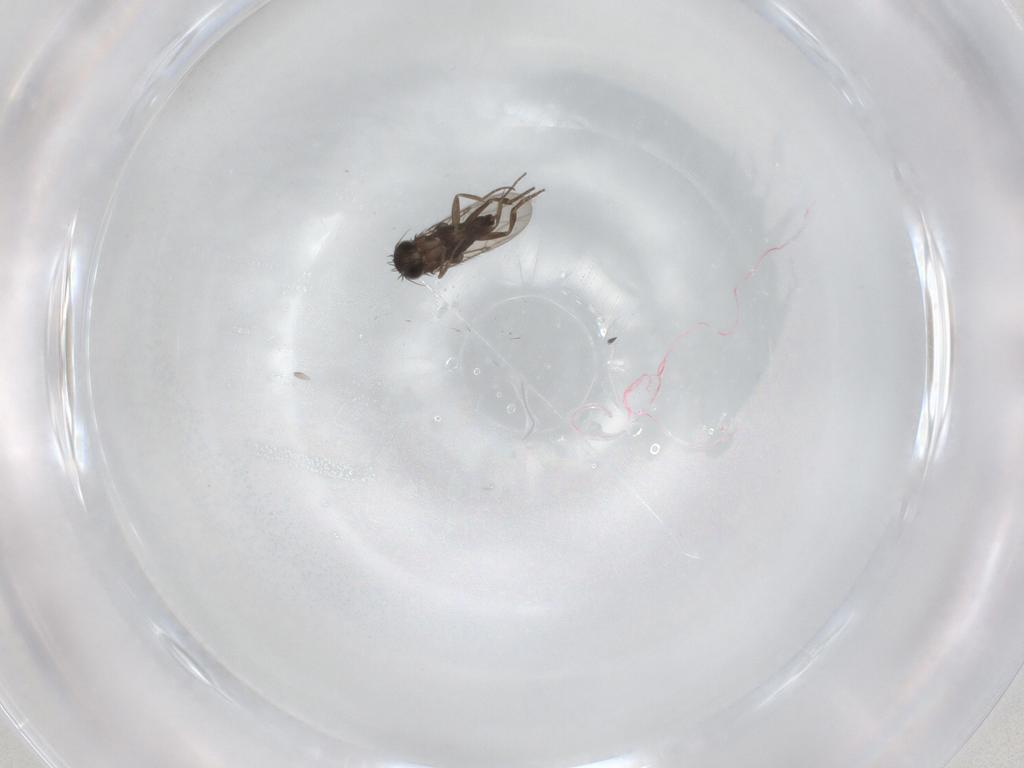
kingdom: Animalia
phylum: Arthropoda
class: Insecta
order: Diptera
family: Phoridae
